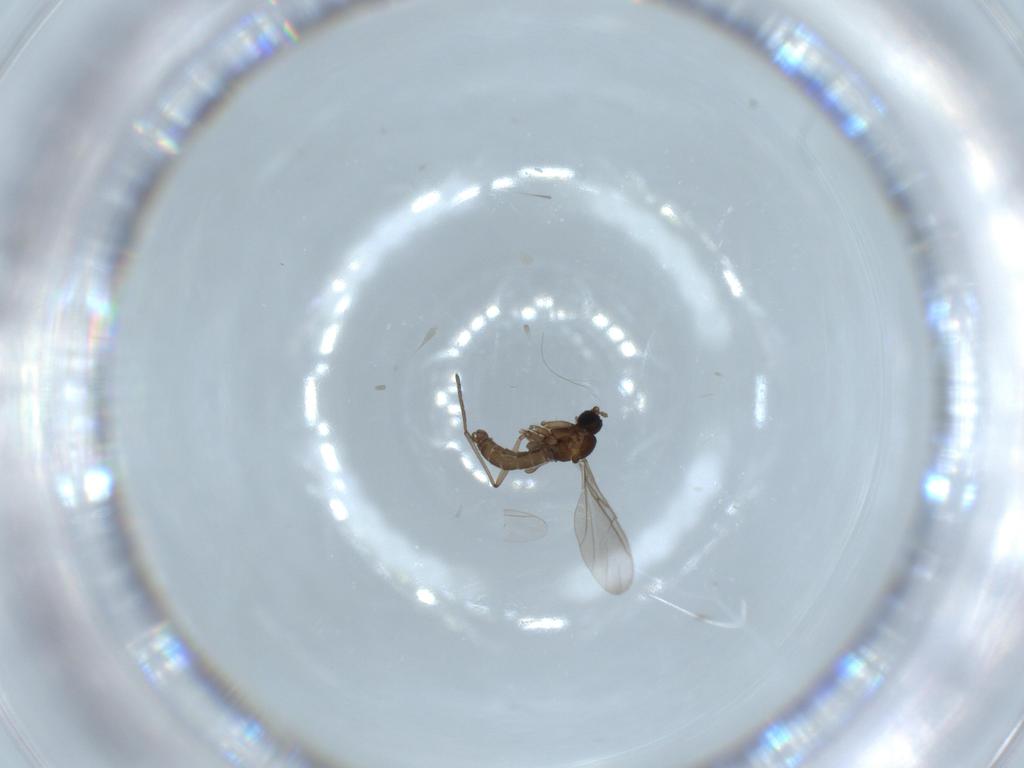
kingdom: Animalia
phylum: Arthropoda
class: Insecta
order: Diptera
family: Chironomidae
